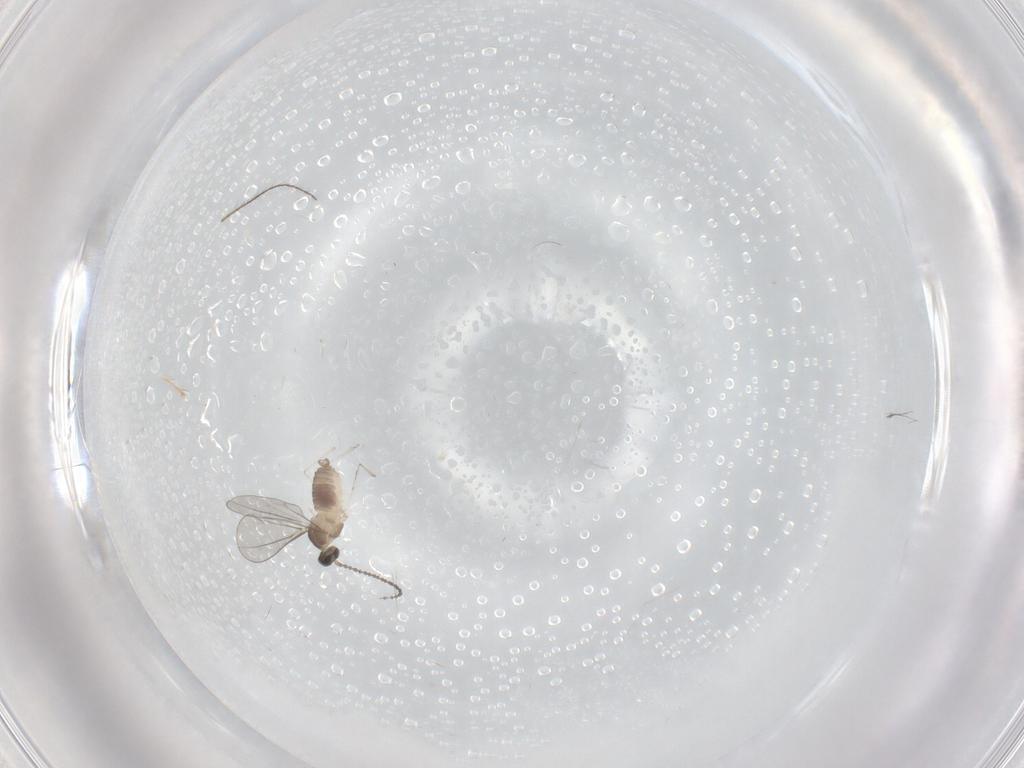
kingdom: Animalia
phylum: Arthropoda
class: Insecta
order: Diptera
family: Cecidomyiidae
